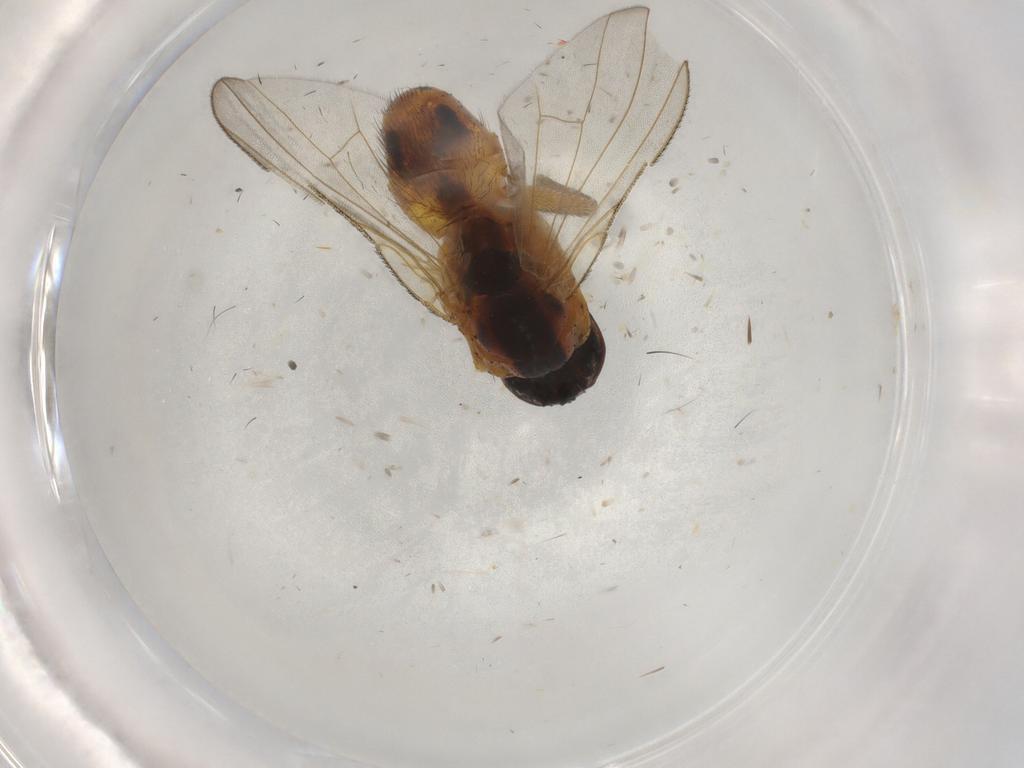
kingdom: Animalia
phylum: Arthropoda
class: Insecta
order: Diptera
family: Muscidae
